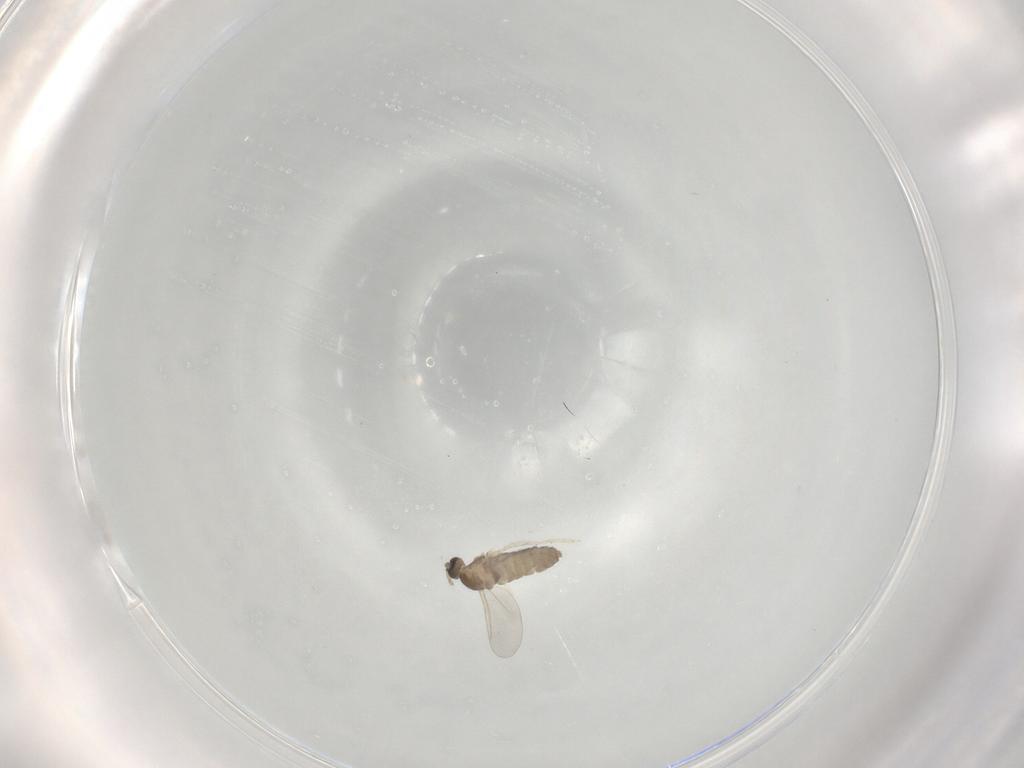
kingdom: Animalia
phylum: Arthropoda
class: Insecta
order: Diptera
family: Cecidomyiidae
